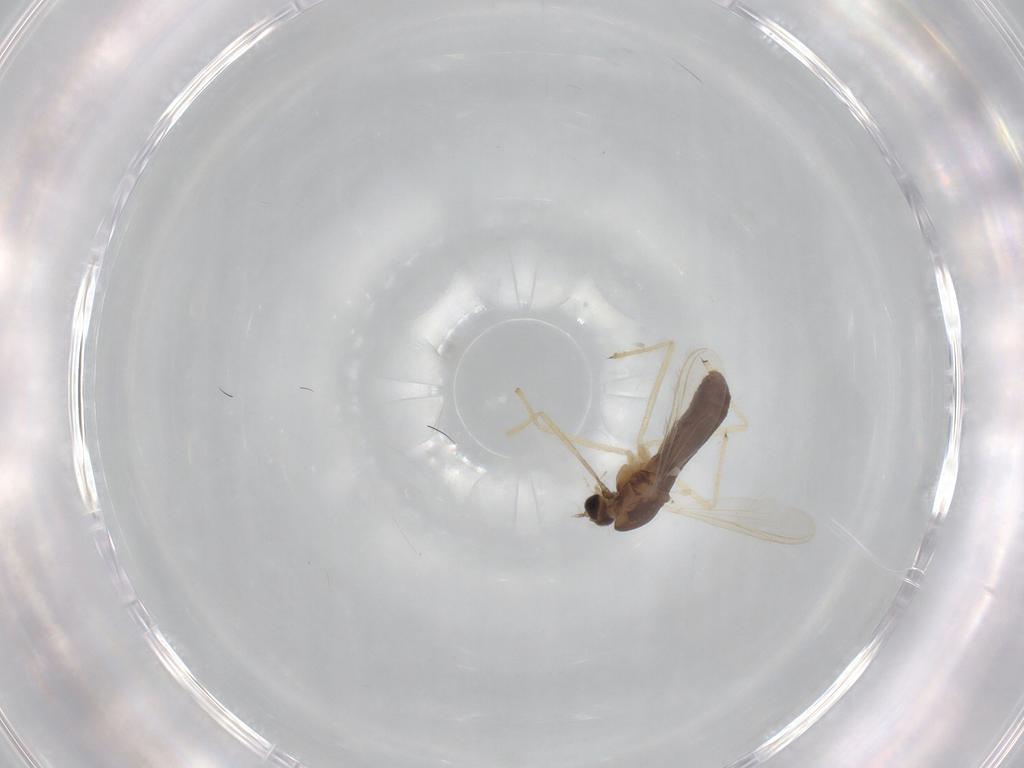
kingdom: Animalia
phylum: Arthropoda
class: Insecta
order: Diptera
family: Chironomidae
